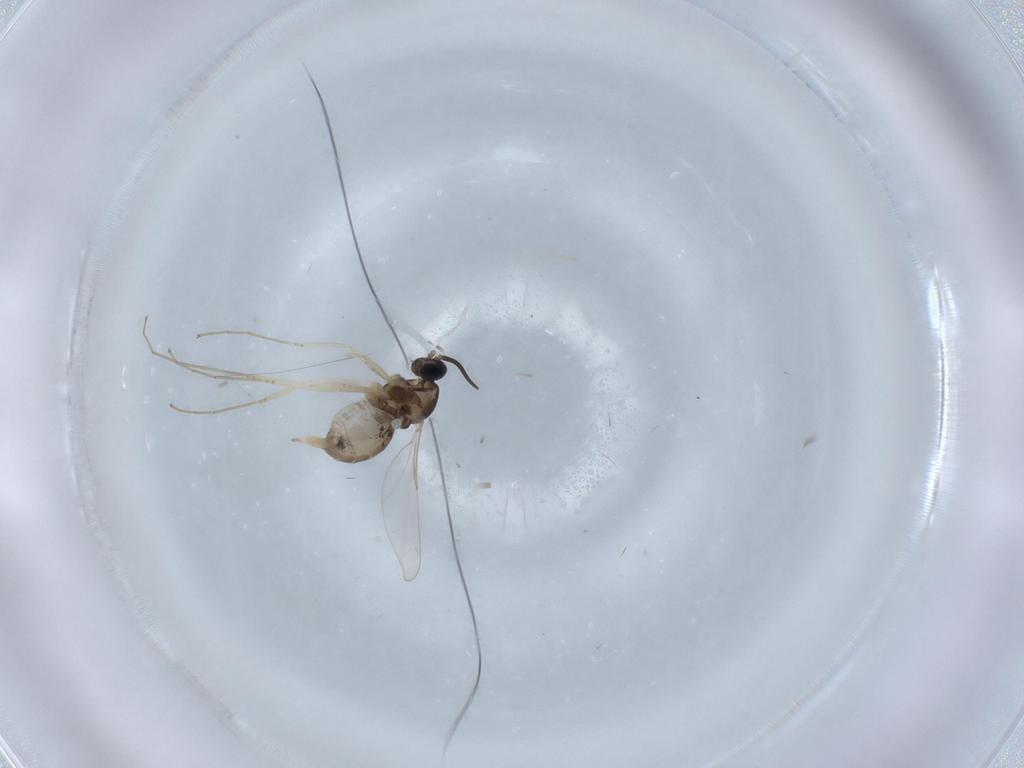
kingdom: Animalia
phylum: Arthropoda
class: Insecta
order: Diptera
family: Cecidomyiidae
